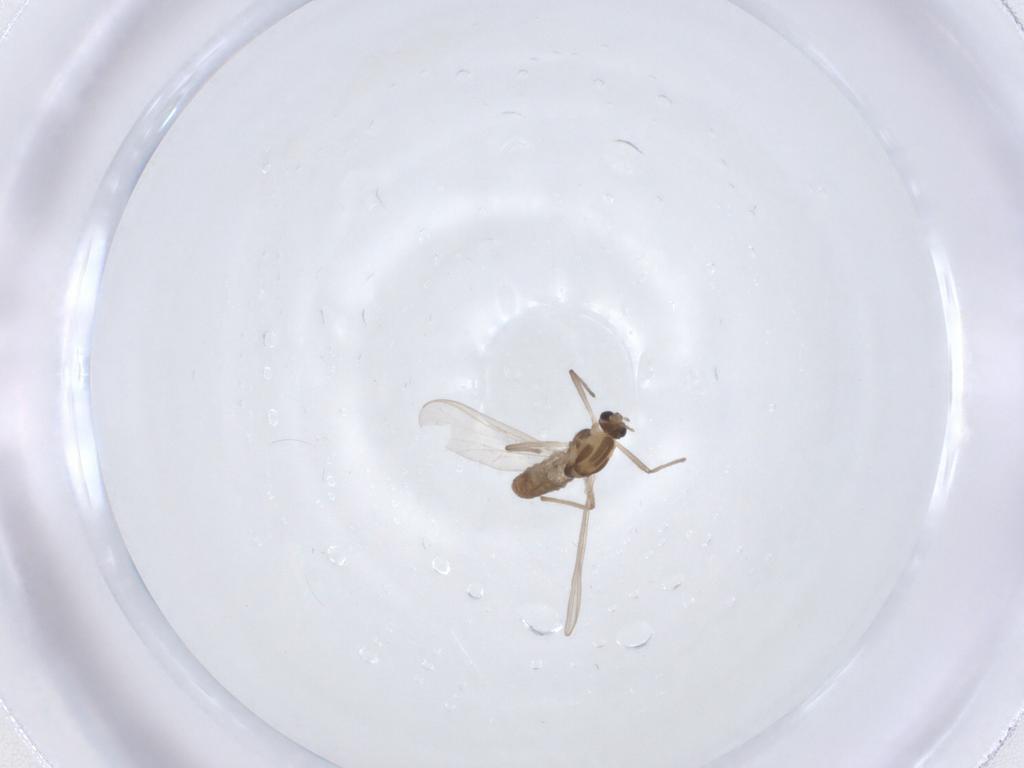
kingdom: Animalia
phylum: Arthropoda
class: Insecta
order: Diptera
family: Chironomidae
